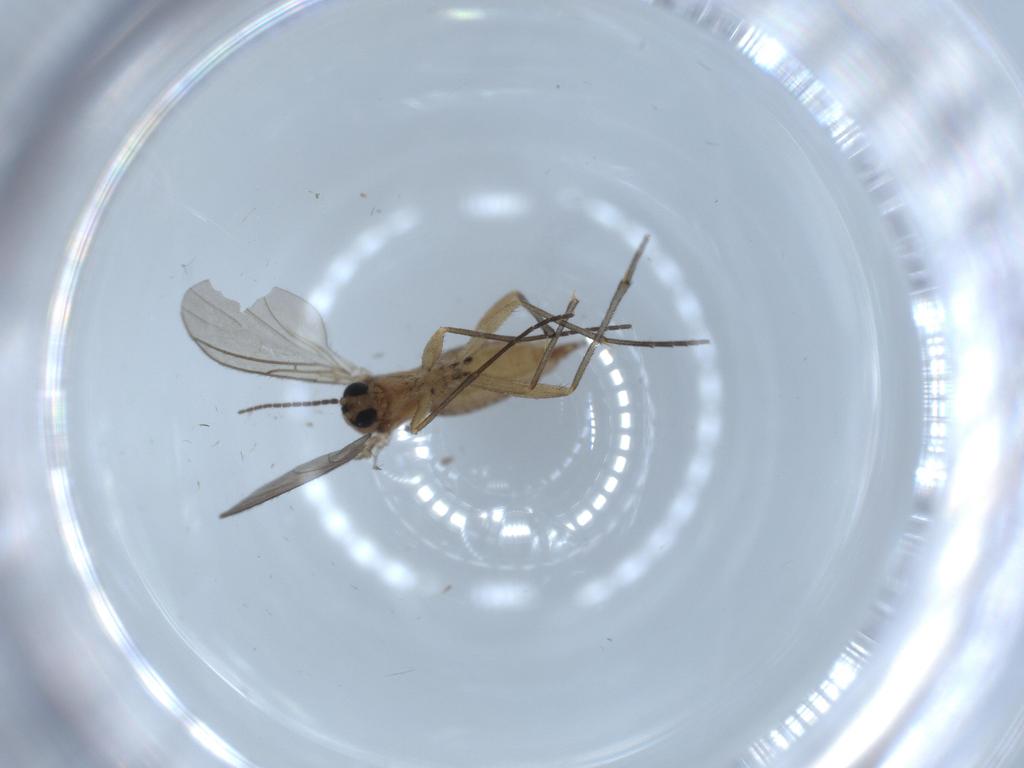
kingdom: Animalia
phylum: Arthropoda
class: Insecta
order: Diptera
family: Sciaridae
